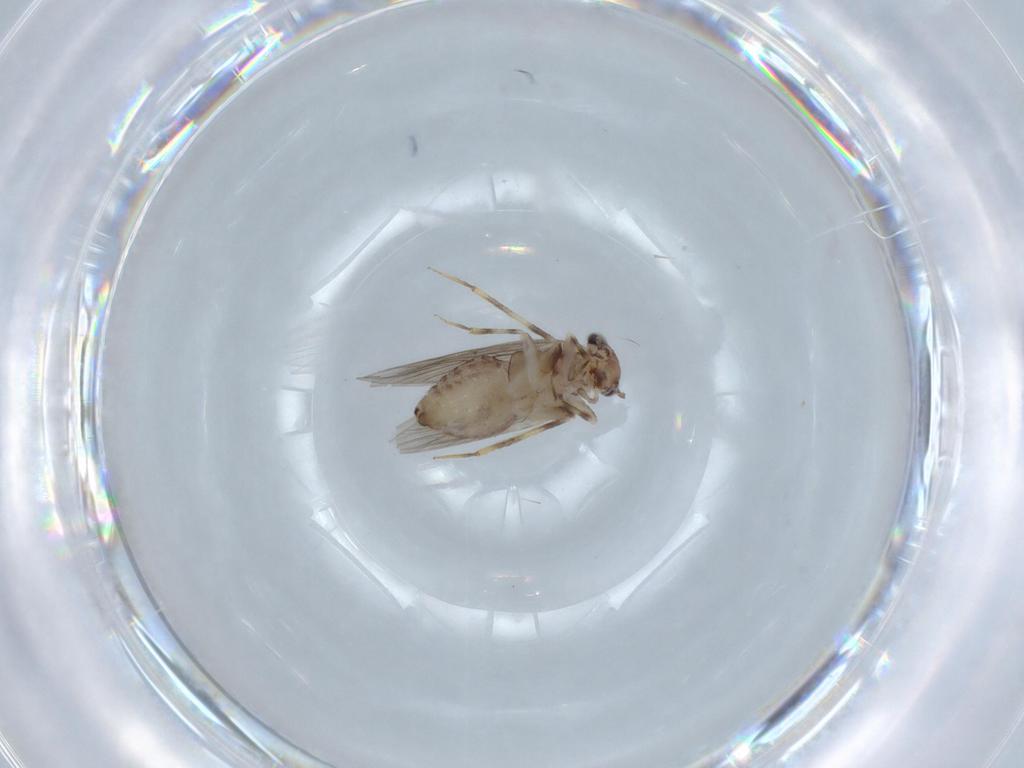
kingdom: Animalia
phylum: Arthropoda
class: Insecta
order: Psocodea
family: Lepidopsocidae
